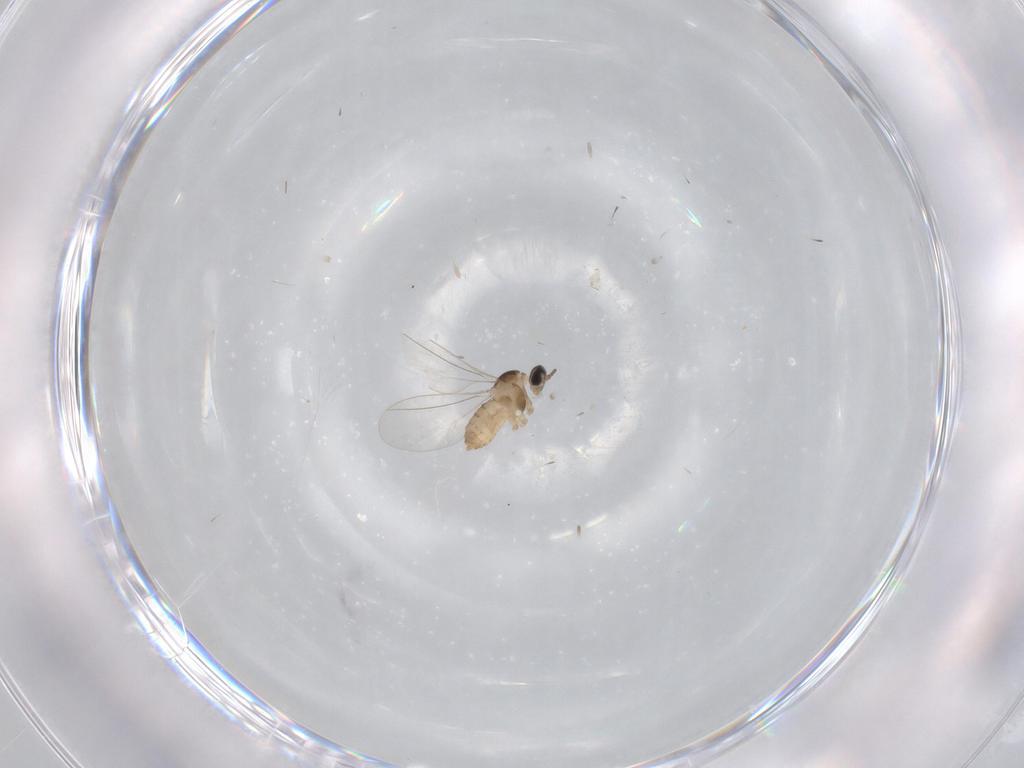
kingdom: Animalia
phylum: Arthropoda
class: Insecta
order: Diptera
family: Cecidomyiidae
